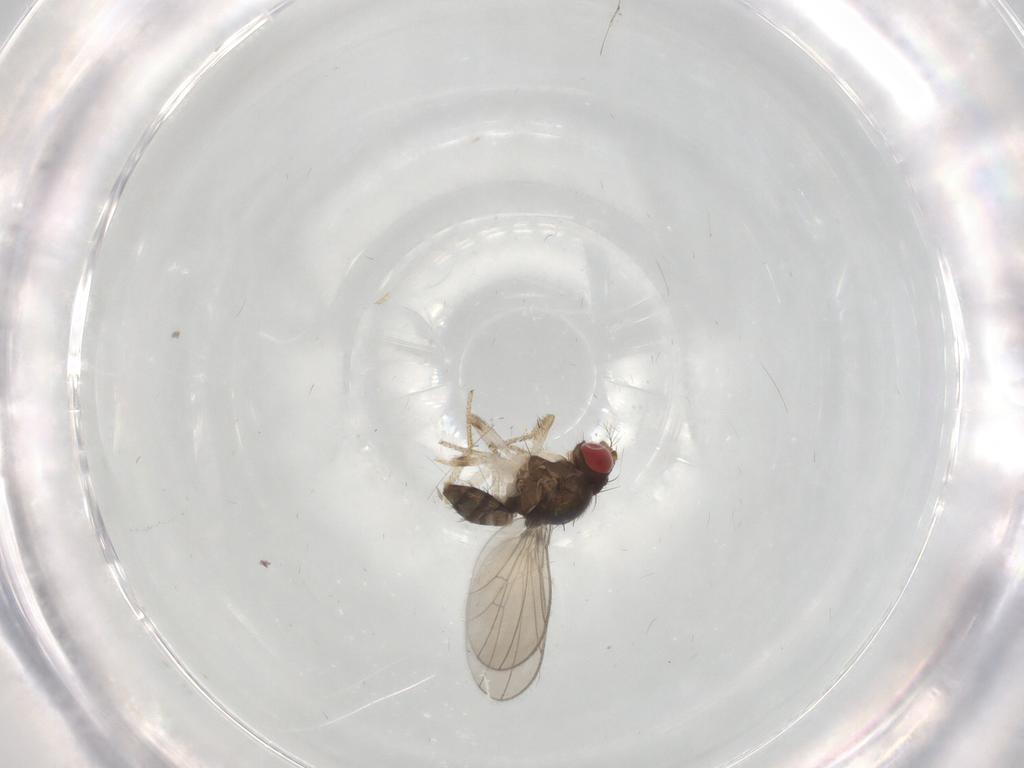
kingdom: Animalia
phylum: Arthropoda
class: Insecta
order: Diptera
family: Drosophilidae
